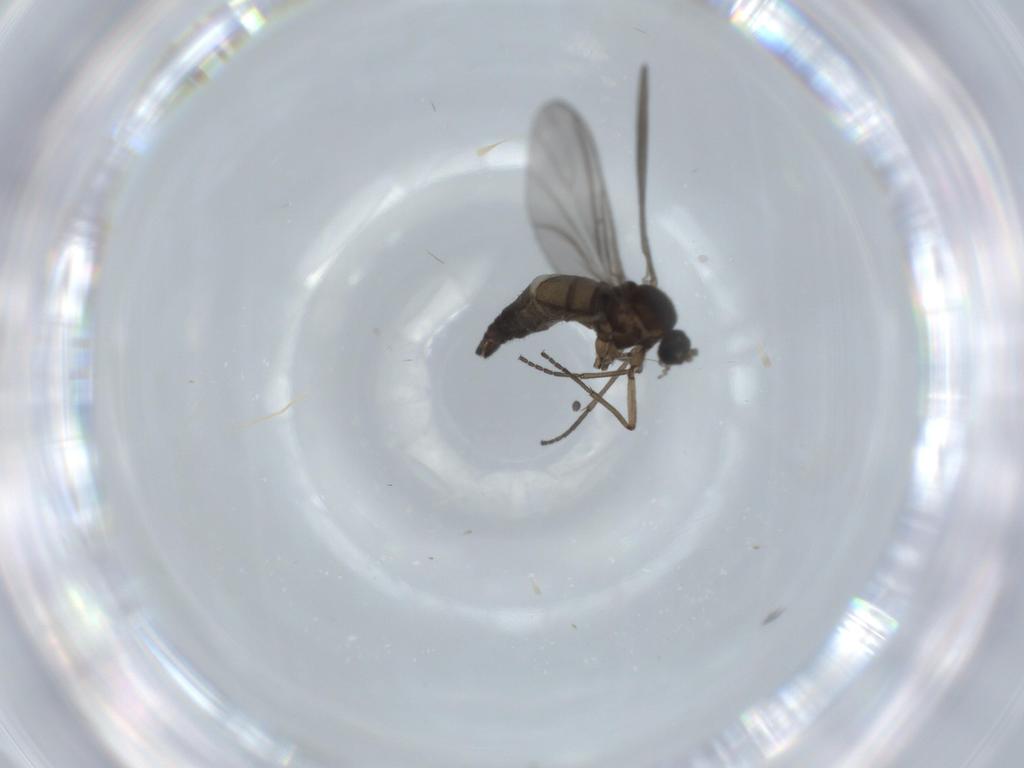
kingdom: Animalia
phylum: Arthropoda
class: Insecta
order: Diptera
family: Sciaridae
